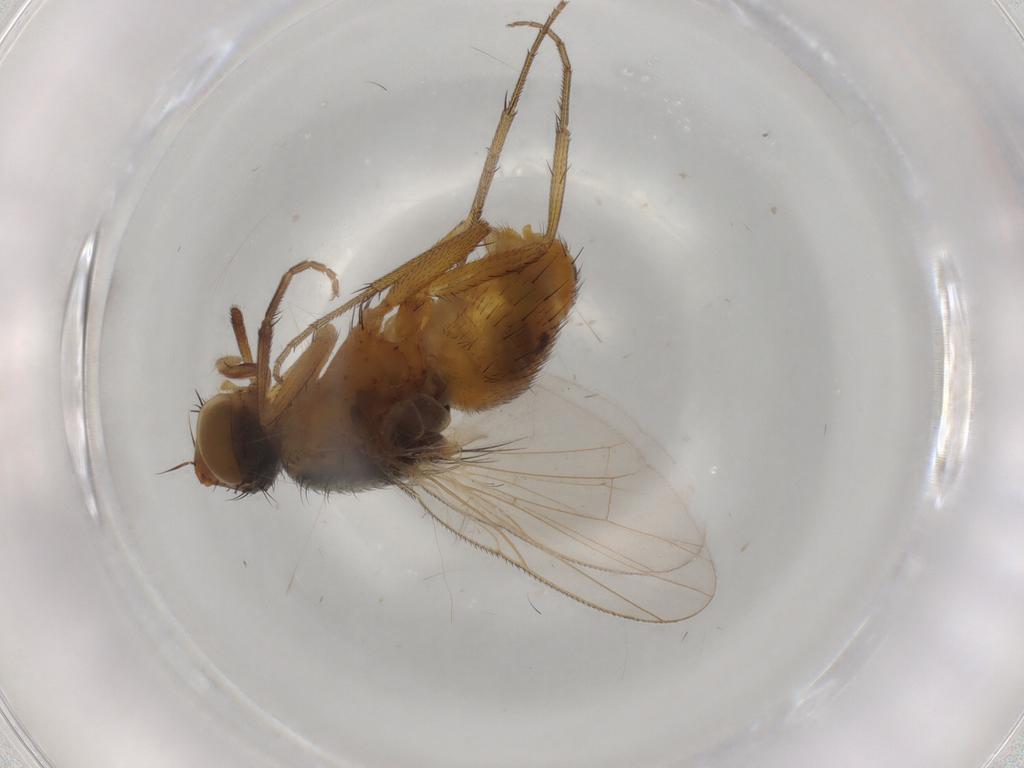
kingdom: Animalia
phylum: Arthropoda
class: Insecta
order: Diptera
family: Muscidae
